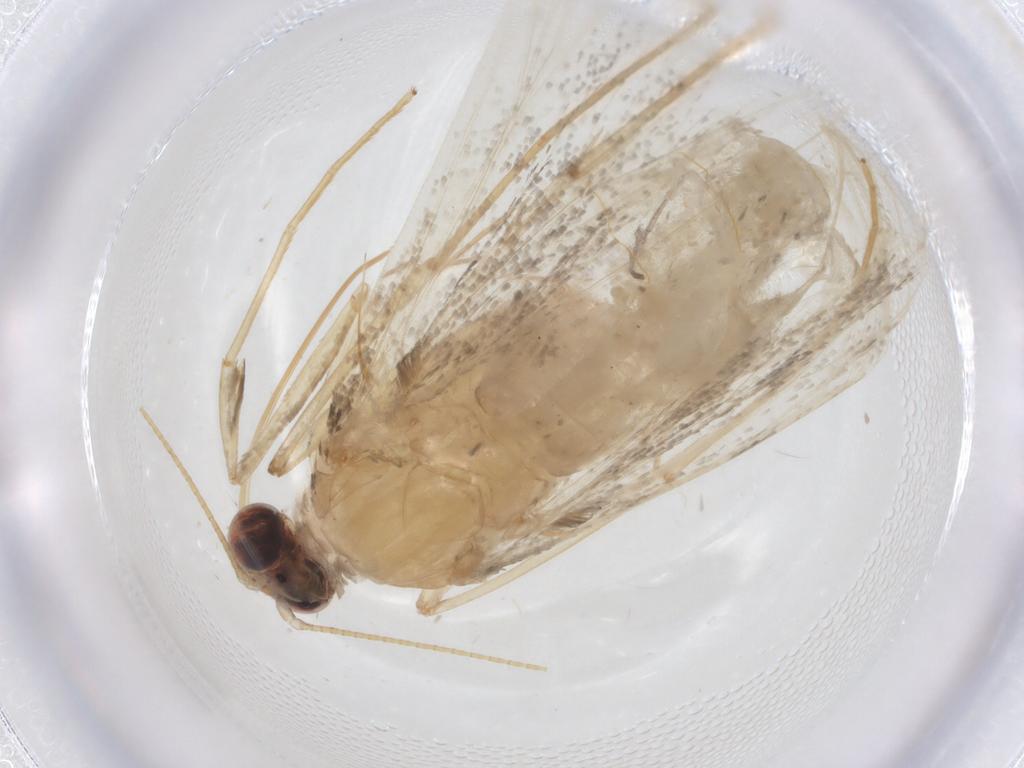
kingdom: Animalia
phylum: Arthropoda
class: Insecta
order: Lepidoptera
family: Crambidae
